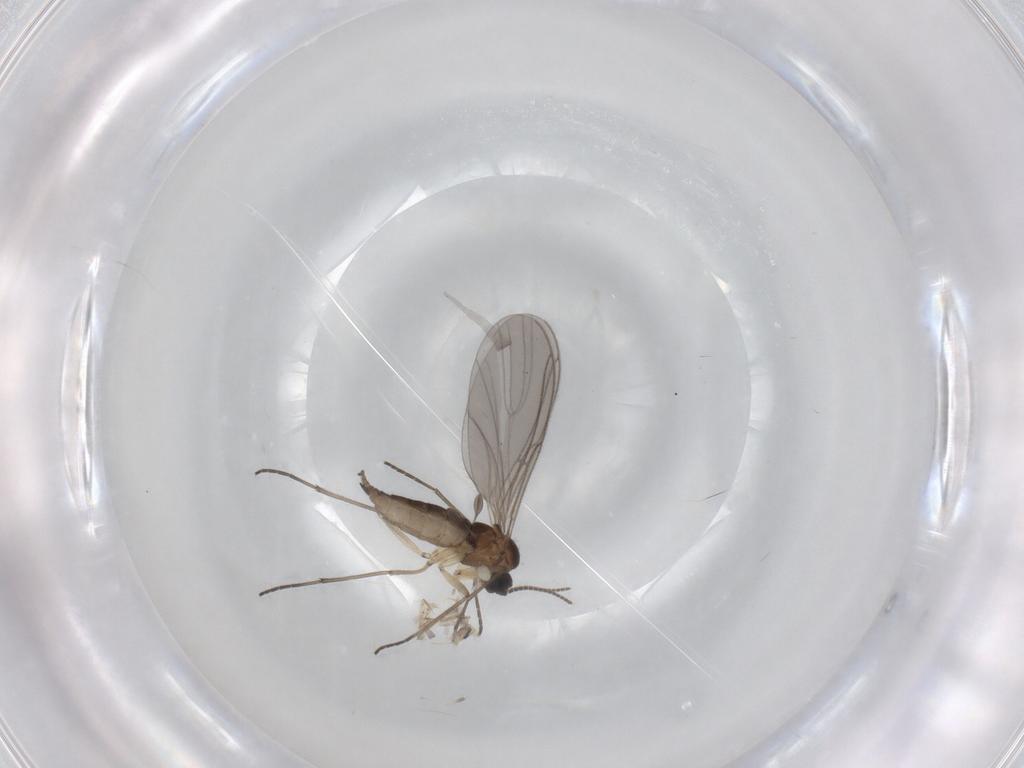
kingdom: Animalia
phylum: Arthropoda
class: Insecta
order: Diptera
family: Sciaridae
